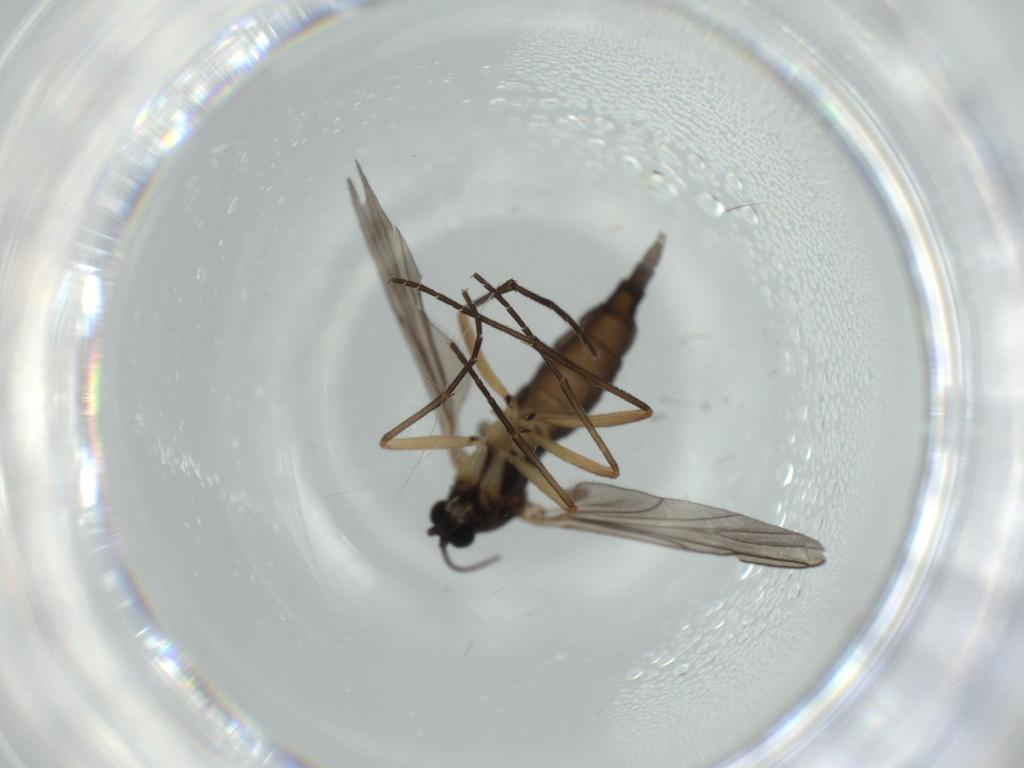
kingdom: Animalia
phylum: Arthropoda
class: Insecta
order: Diptera
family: Sciaridae
